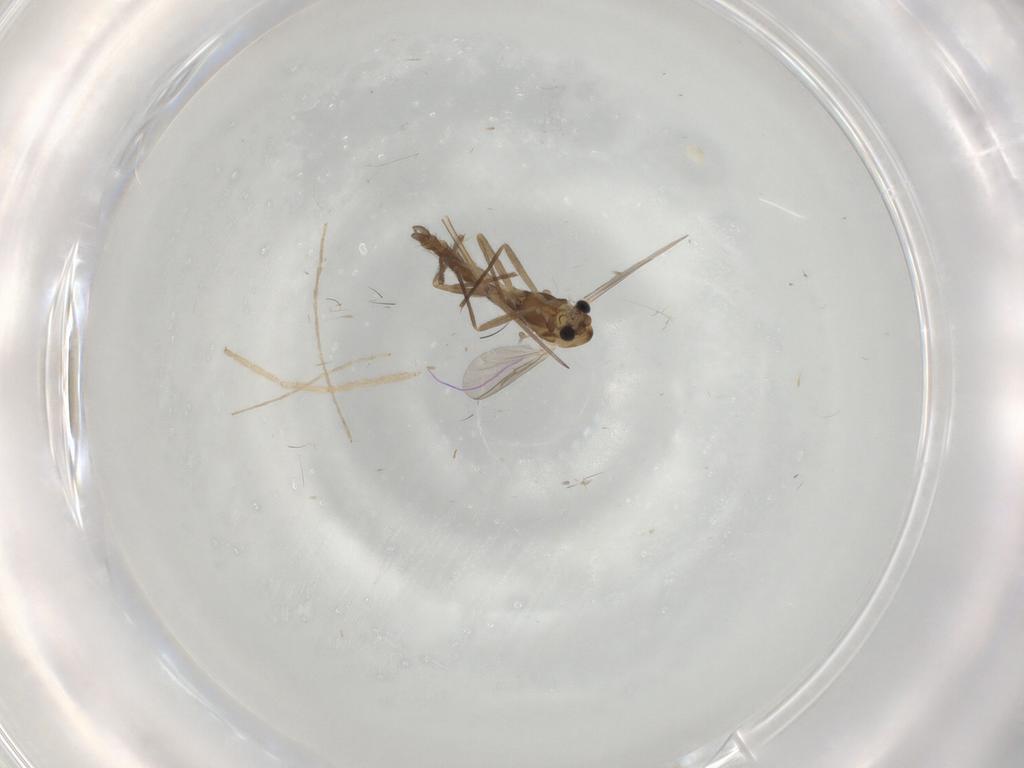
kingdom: Animalia
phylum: Arthropoda
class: Insecta
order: Diptera
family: Chironomidae
